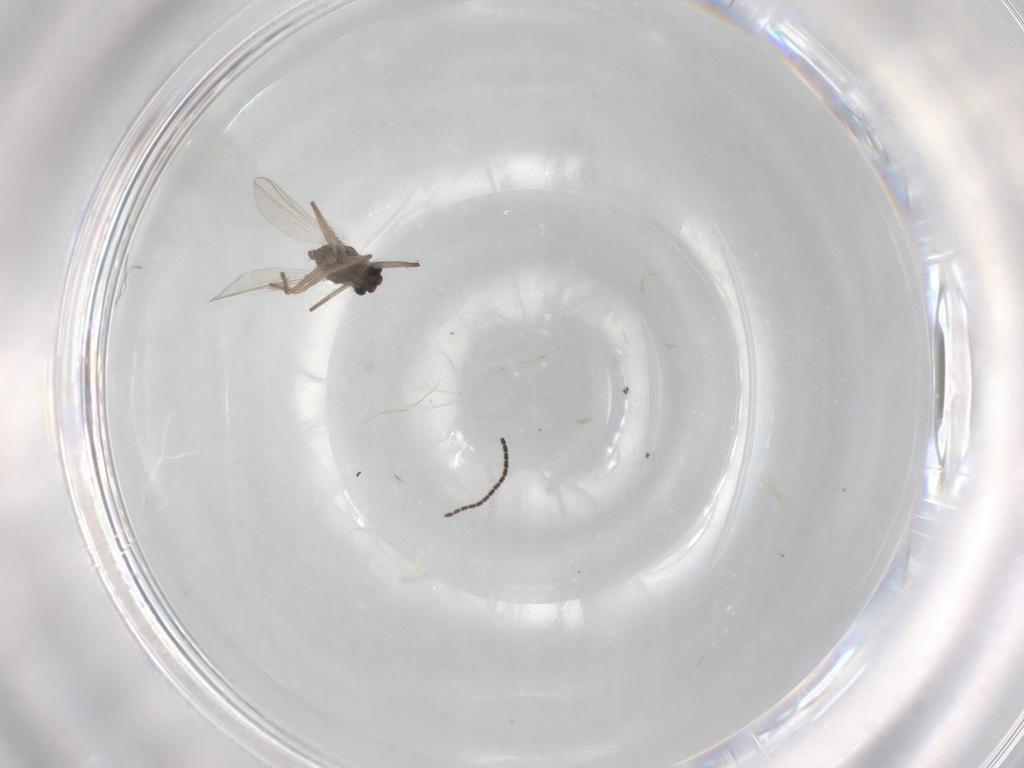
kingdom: Animalia
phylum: Arthropoda
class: Insecta
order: Diptera
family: Chironomidae
